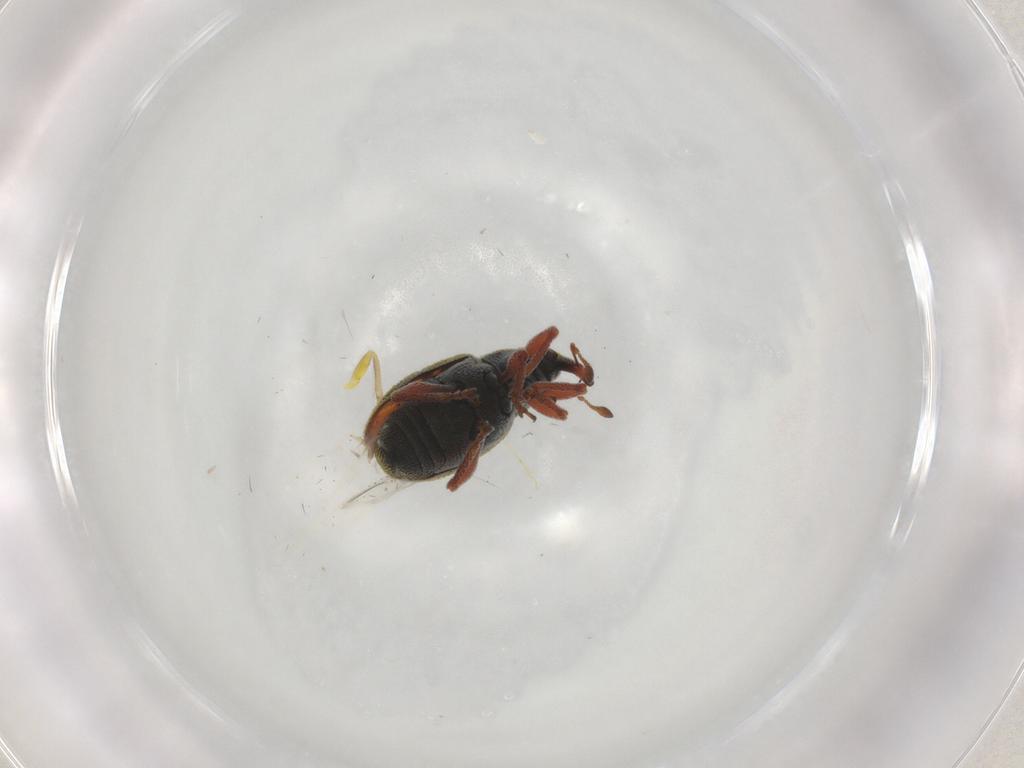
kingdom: Animalia
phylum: Arthropoda
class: Insecta
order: Coleoptera
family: Curculionidae
